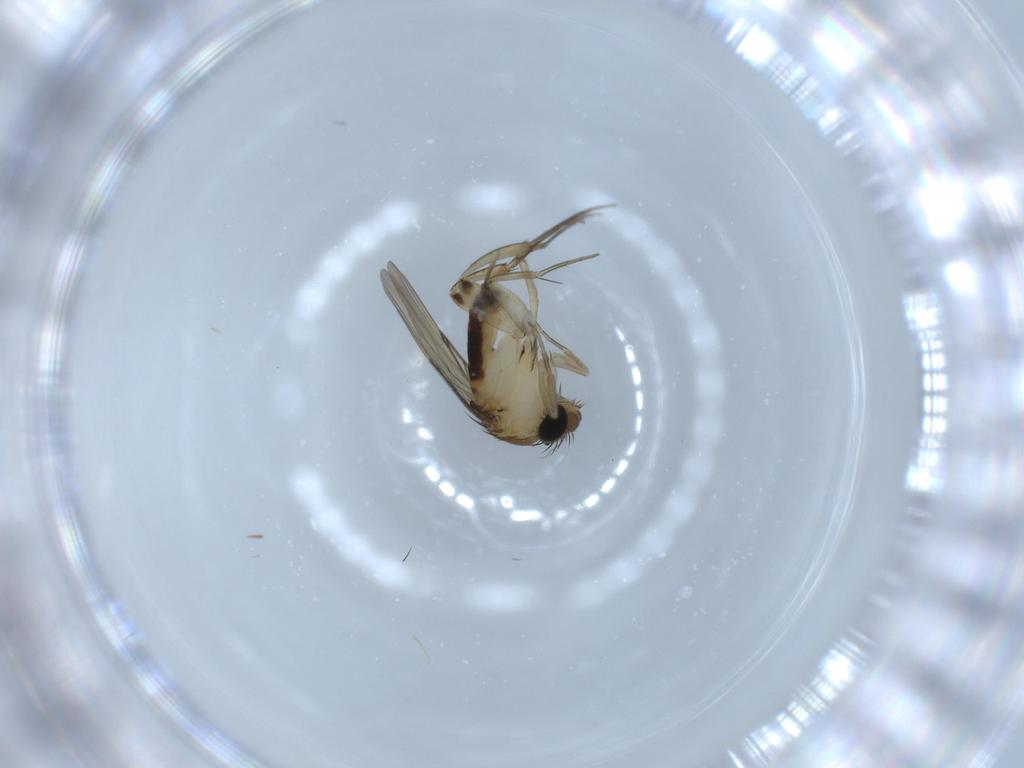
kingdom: Animalia
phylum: Arthropoda
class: Insecta
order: Diptera
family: Phoridae
